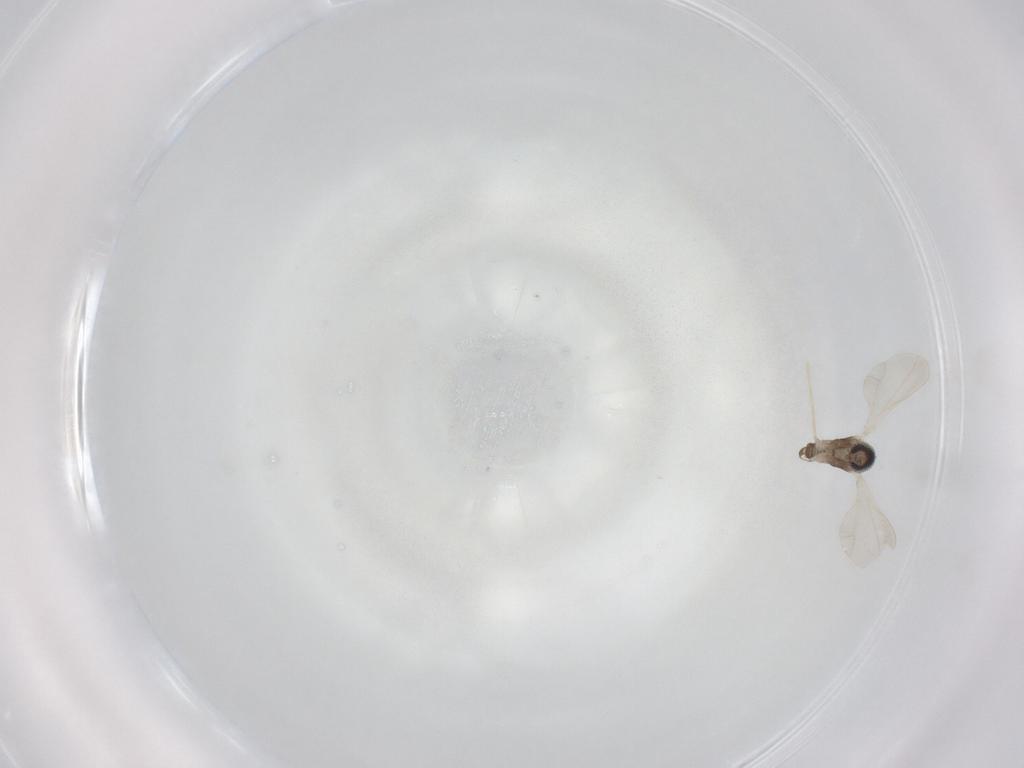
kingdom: Animalia
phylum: Arthropoda
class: Insecta
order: Diptera
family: Cecidomyiidae
